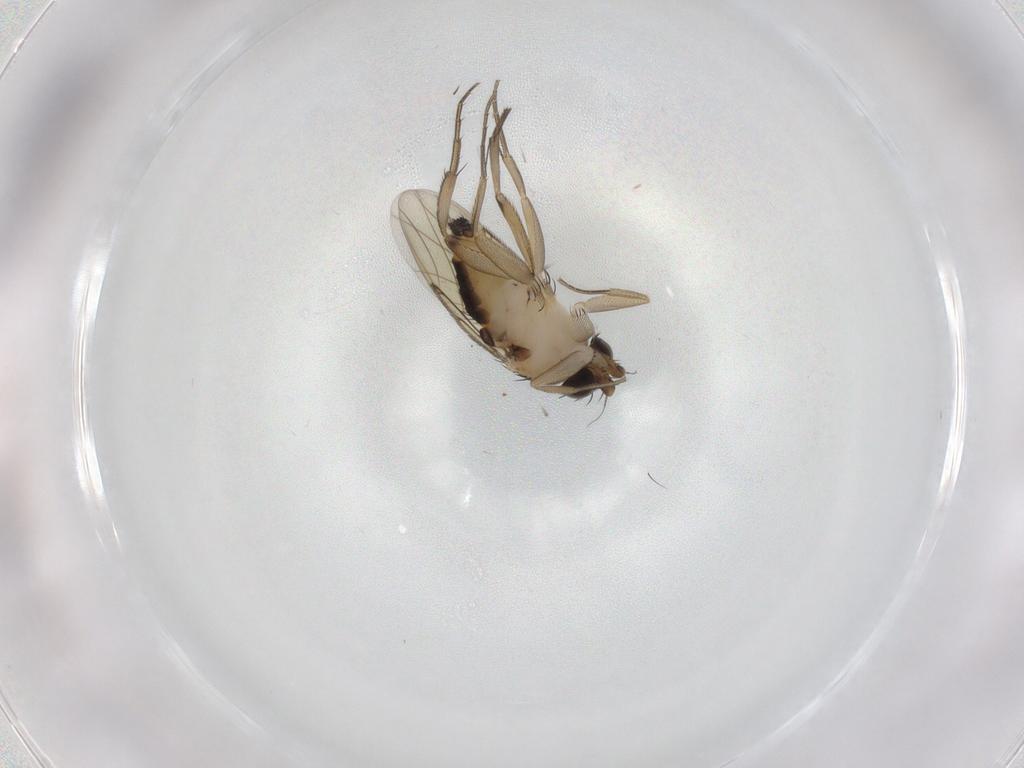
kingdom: Animalia
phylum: Arthropoda
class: Insecta
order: Diptera
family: Phoridae
